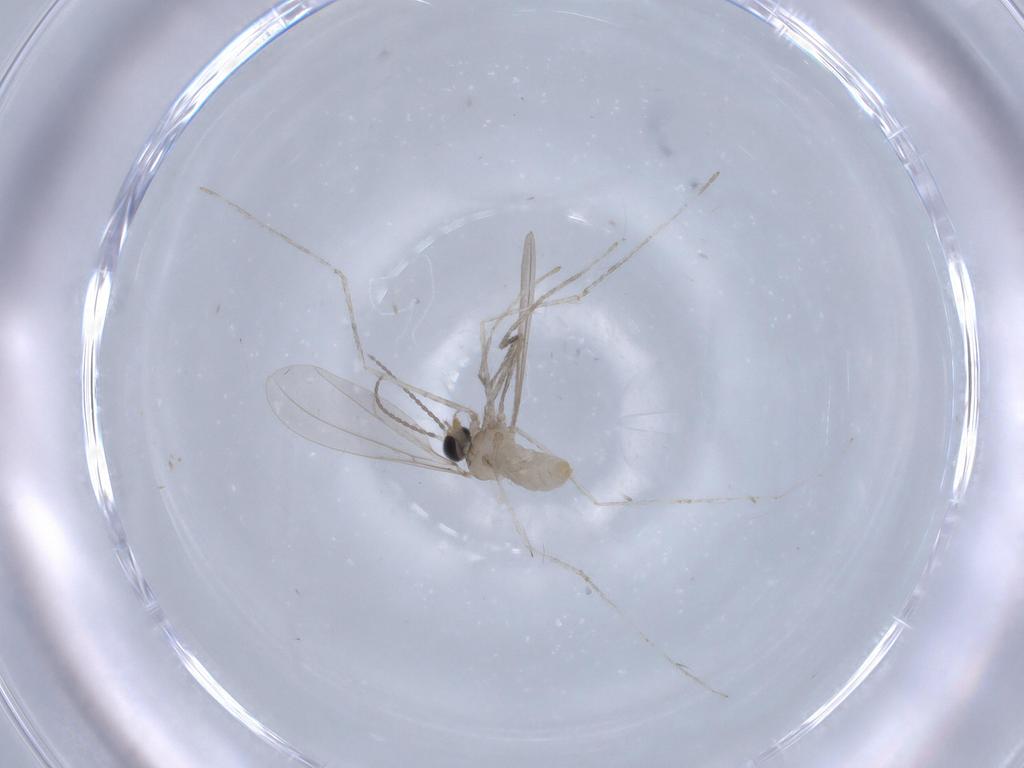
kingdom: Animalia
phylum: Arthropoda
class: Insecta
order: Diptera
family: Cecidomyiidae
